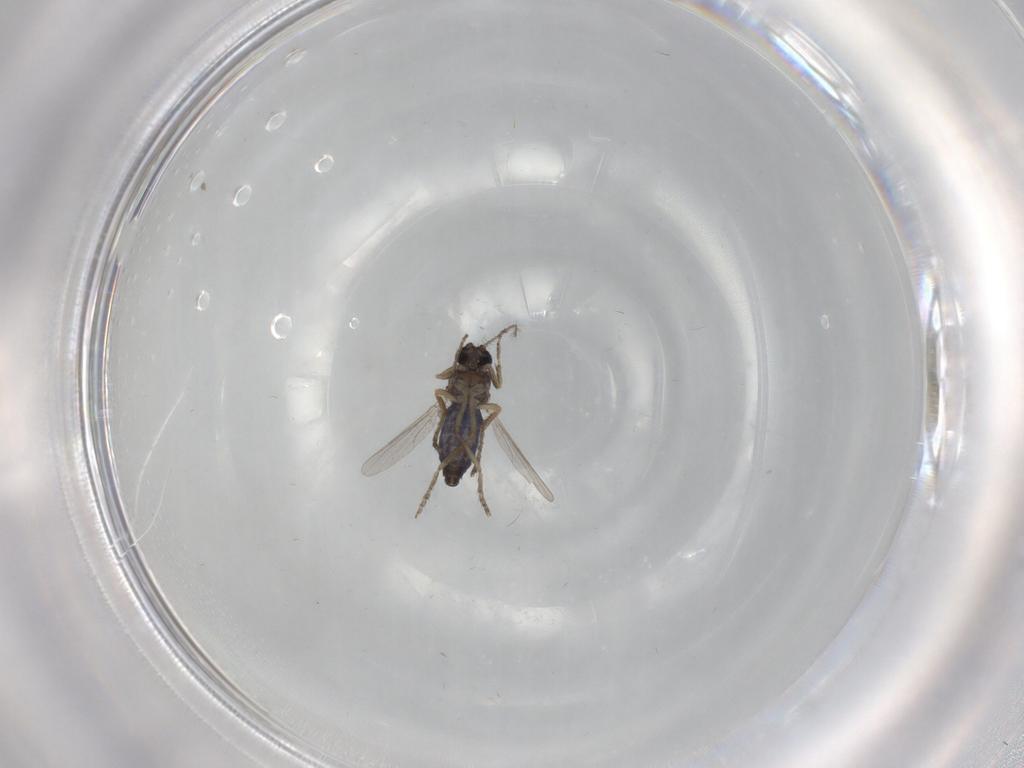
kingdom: Animalia
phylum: Arthropoda
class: Insecta
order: Diptera
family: Ceratopogonidae
